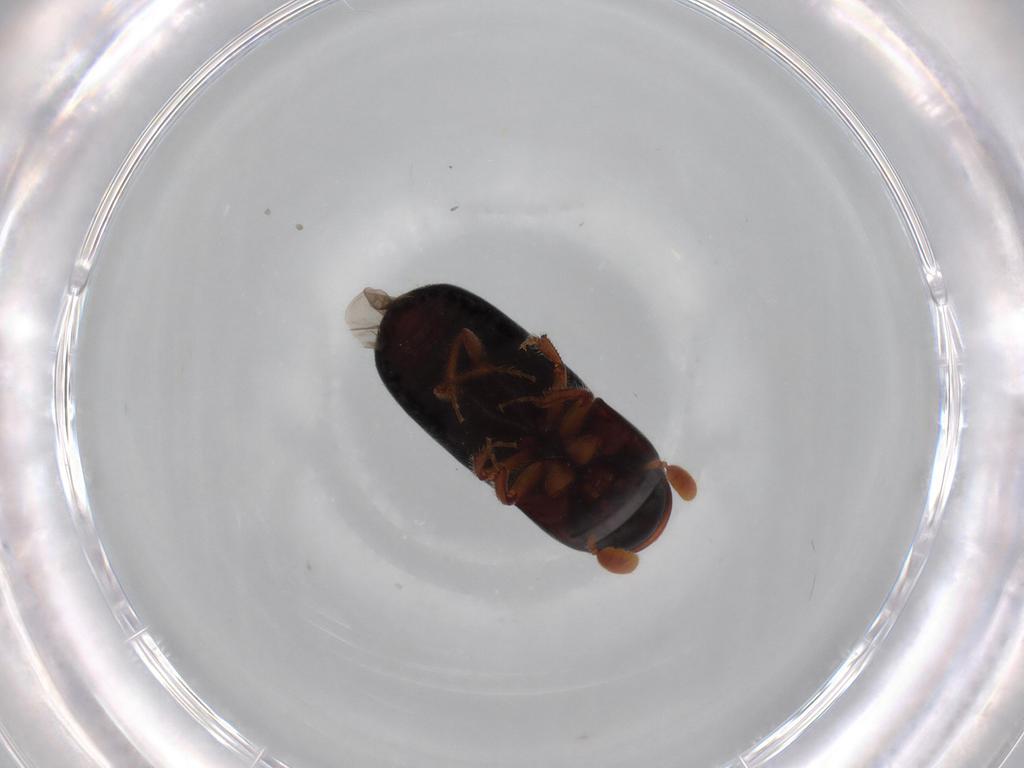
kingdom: Animalia
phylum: Arthropoda
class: Insecta
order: Coleoptera
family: Curculionidae
